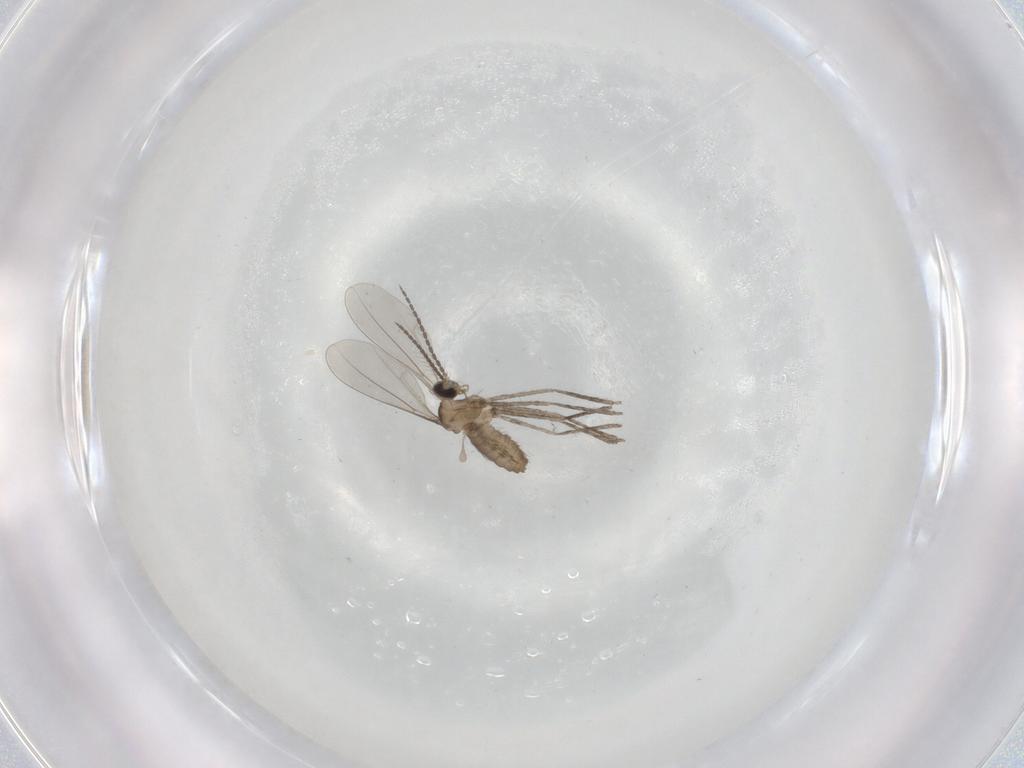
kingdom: Animalia
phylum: Arthropoda
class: Insecta
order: Diptera
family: Cecidomyiidae
